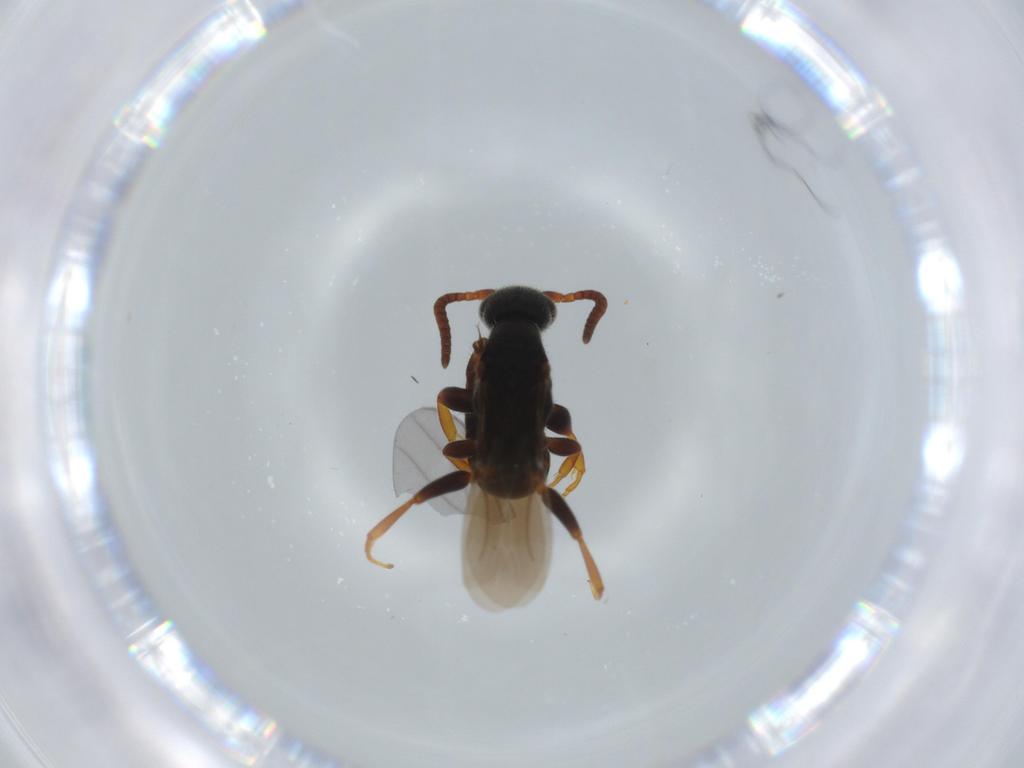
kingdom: Animalia
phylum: Arthropoda
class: Insecta
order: Hymenoptera
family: Bethylidae
